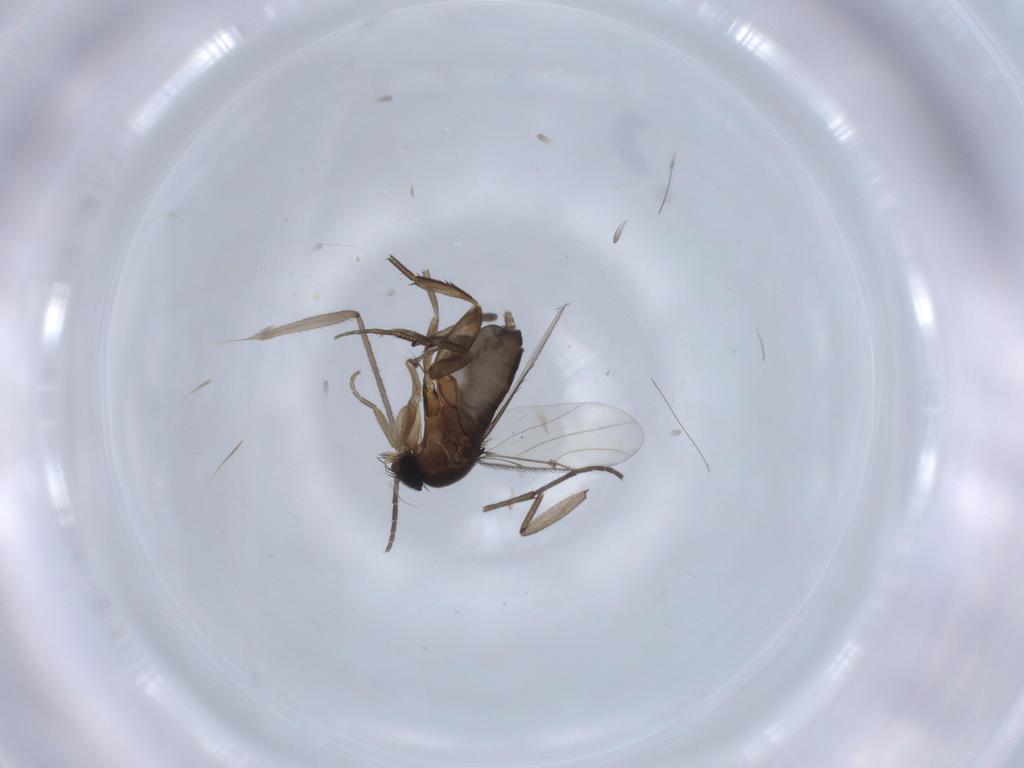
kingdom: Animalia
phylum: Arthropoda
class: Insecta
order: Diptera
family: Phoridae
